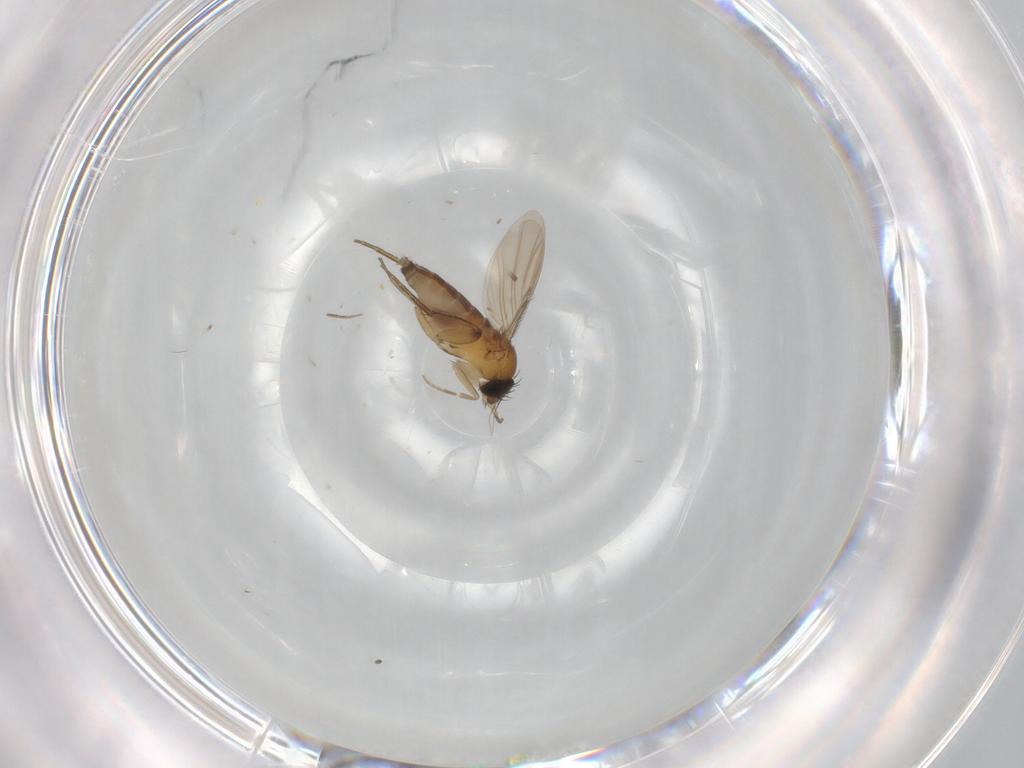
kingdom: Animalia
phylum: Arthropoda
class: Insecta
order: Diptera
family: Phoridae
